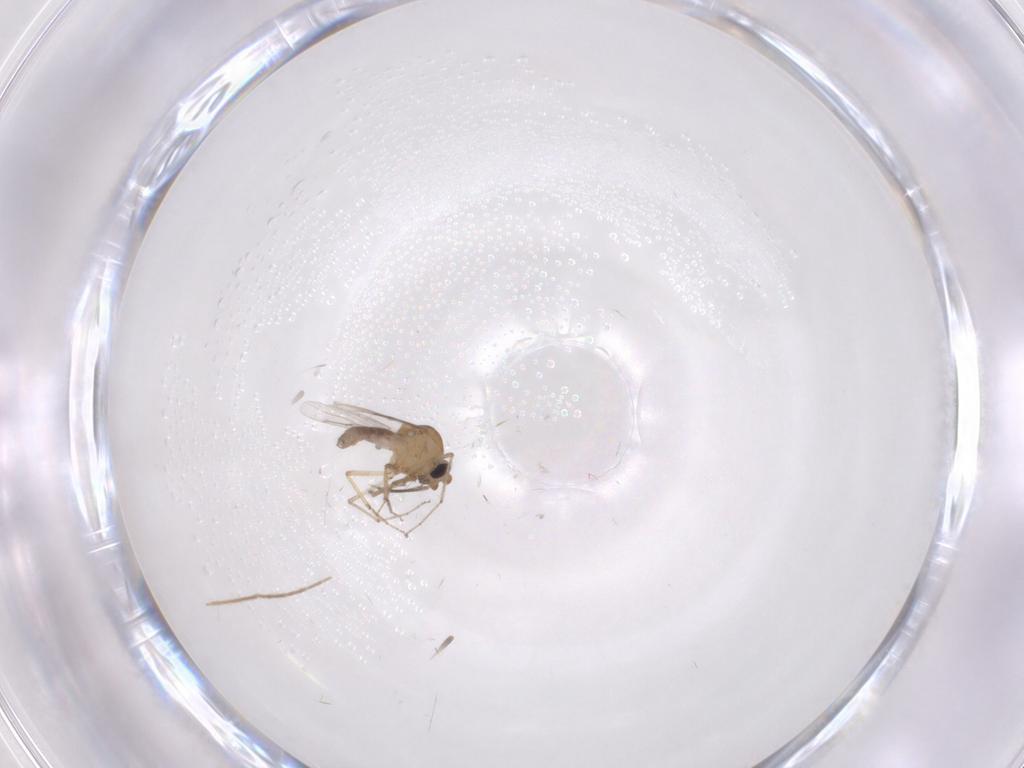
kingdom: Animalia
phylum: Arthropoda
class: Insecta
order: Diptera
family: Chironomidae
